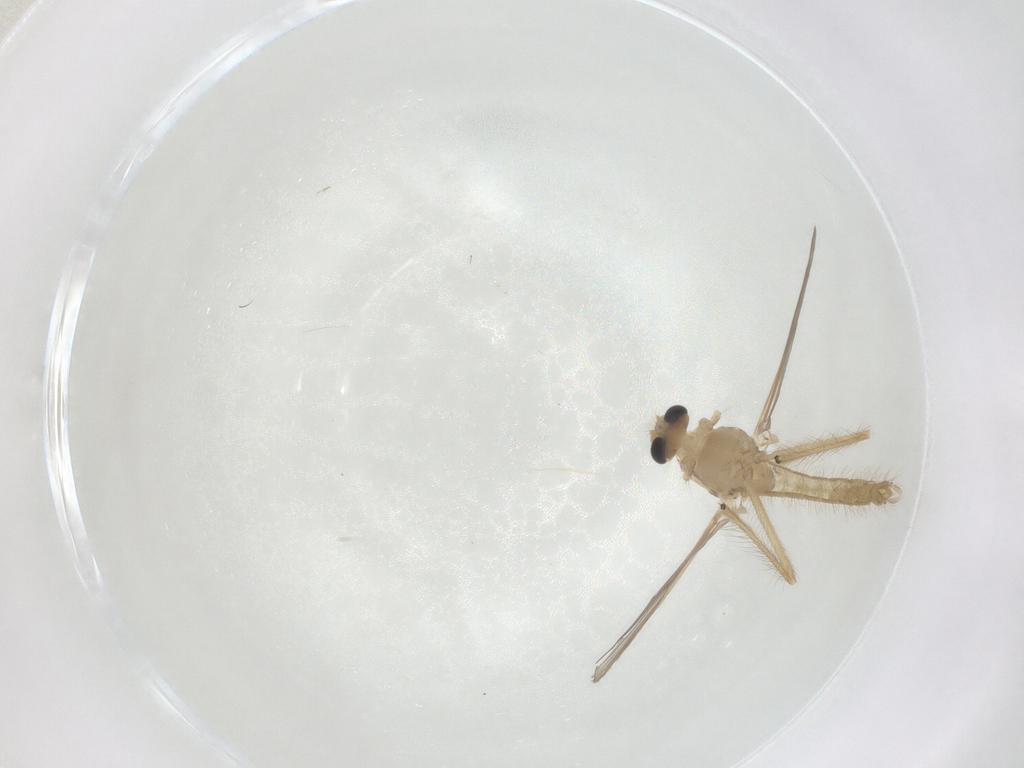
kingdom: Animalia
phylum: Arthropoda
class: Insecta
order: Diptera
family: Chironomidae
